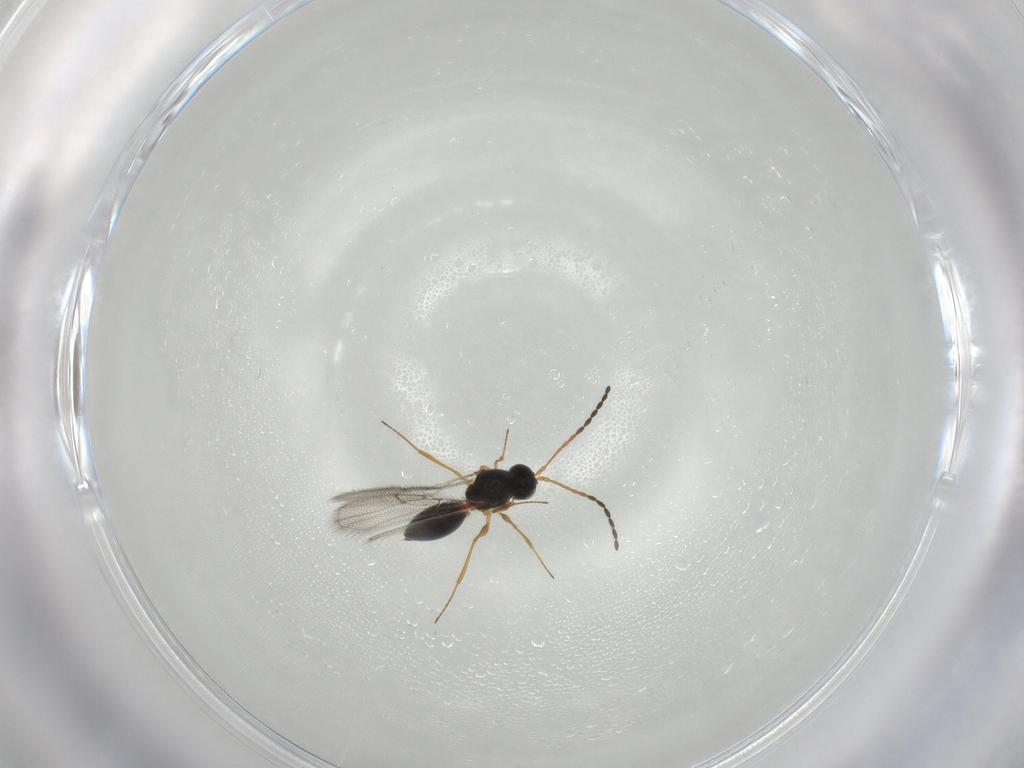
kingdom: Animalia
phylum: Arthropoda
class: Insecta
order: Hymenoptera
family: Figitidae
